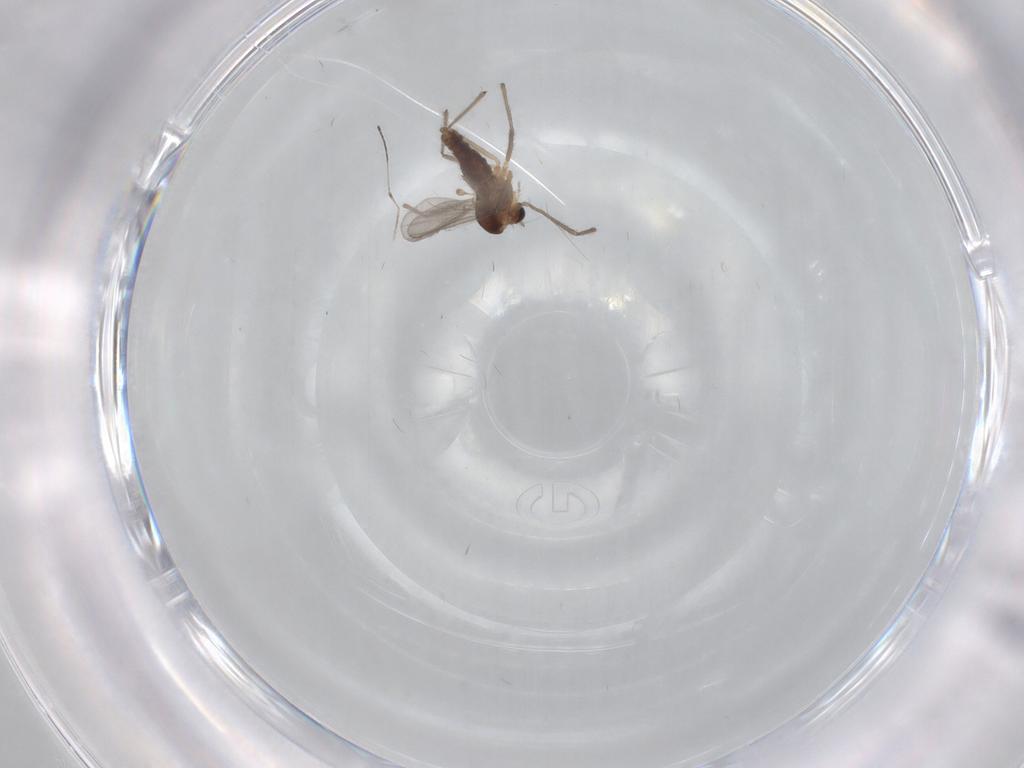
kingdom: Animalia
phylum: Arthropoda
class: Insecta
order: Diptera
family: Chironomidae
